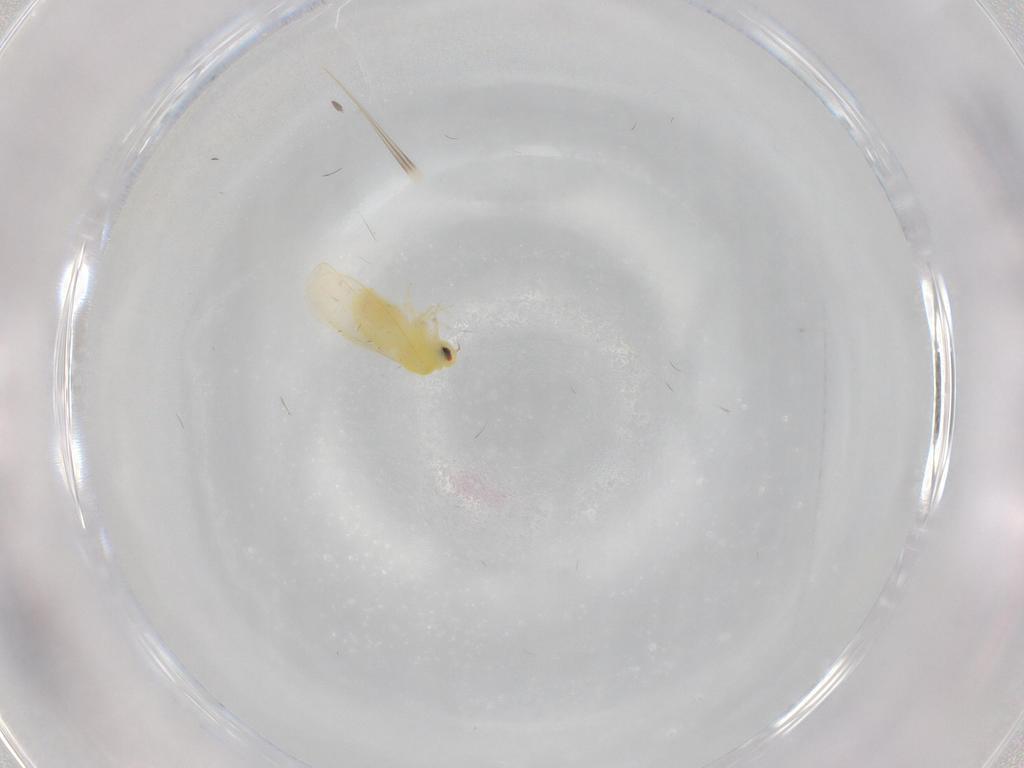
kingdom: Animalia
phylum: Arthropoda
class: Insecta
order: Hemiptera
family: Aleyrodidae
